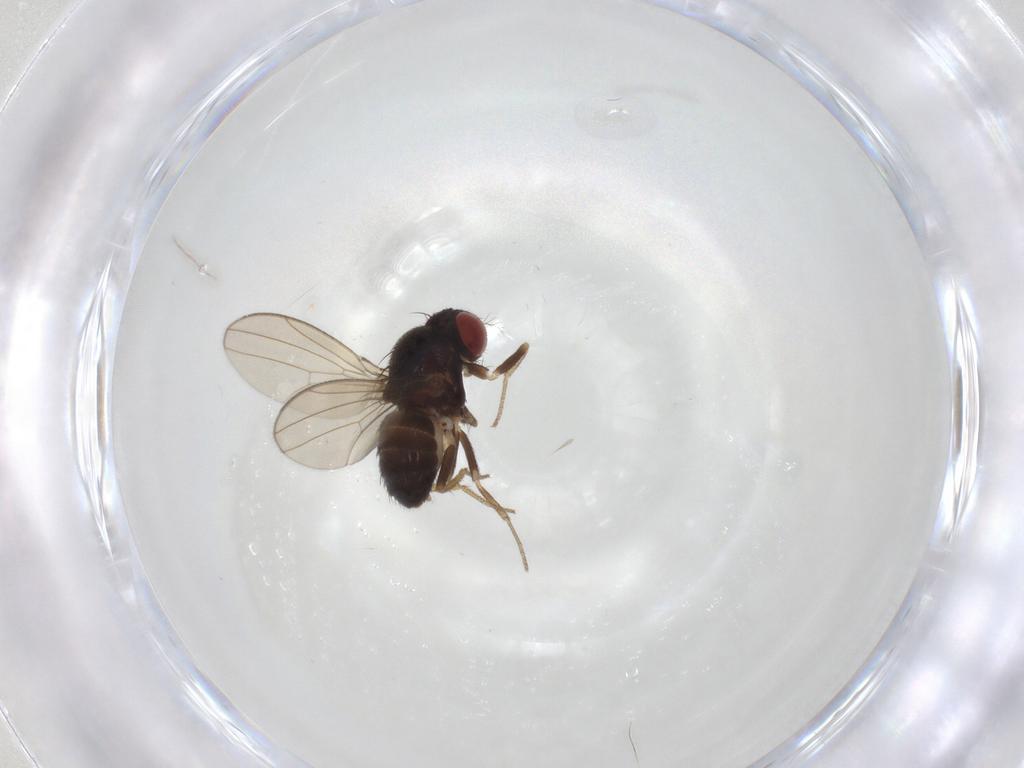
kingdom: Animalia
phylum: Arthropoda
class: Insecta
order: Diptera
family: Drosophilidae
